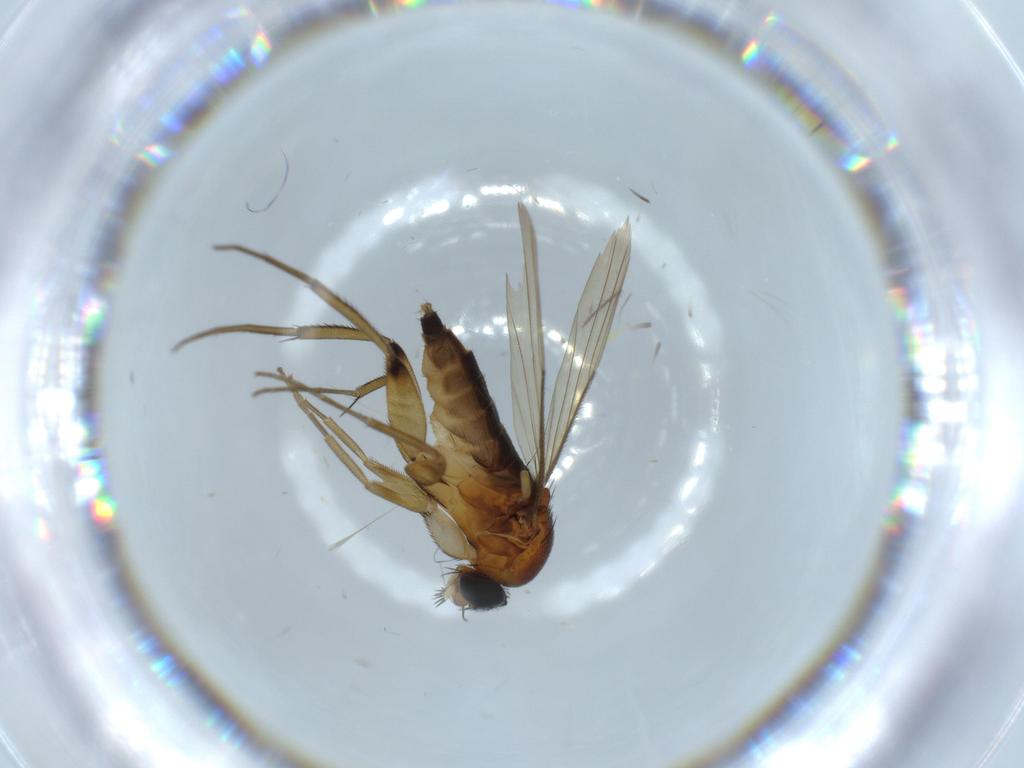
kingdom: Animalia
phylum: Arthropoda
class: Insecta
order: Diptera
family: Phoridae
